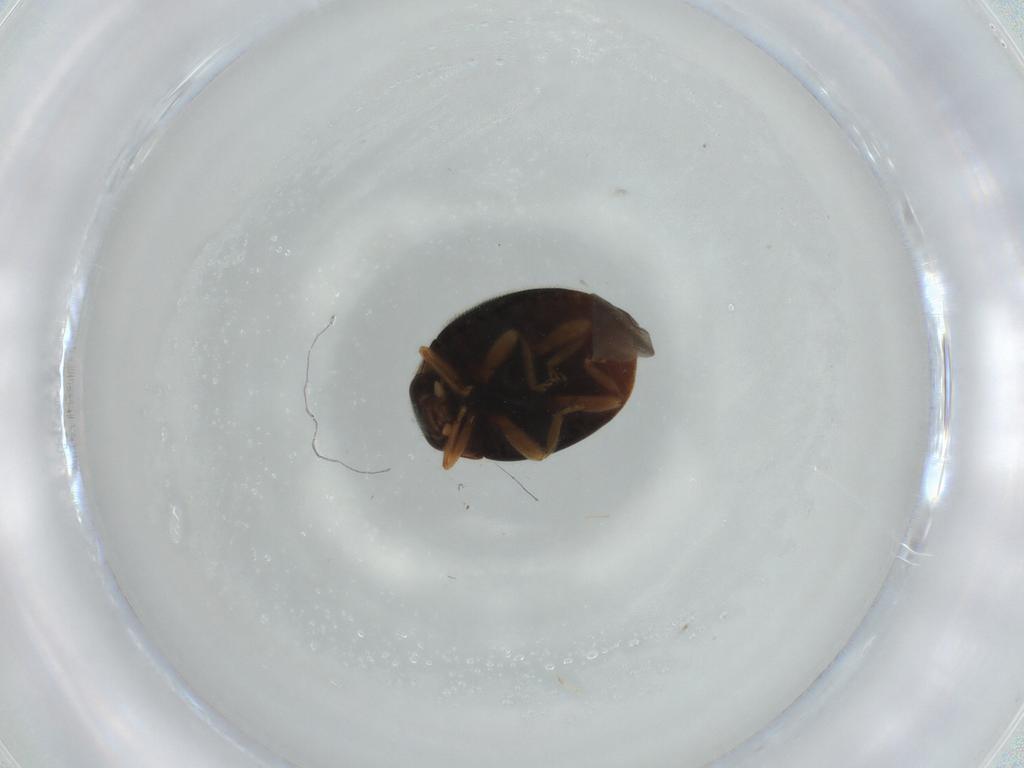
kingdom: Animalia
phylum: Arthropoda
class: Insecta
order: Coleoptera
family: Coccinellidae
